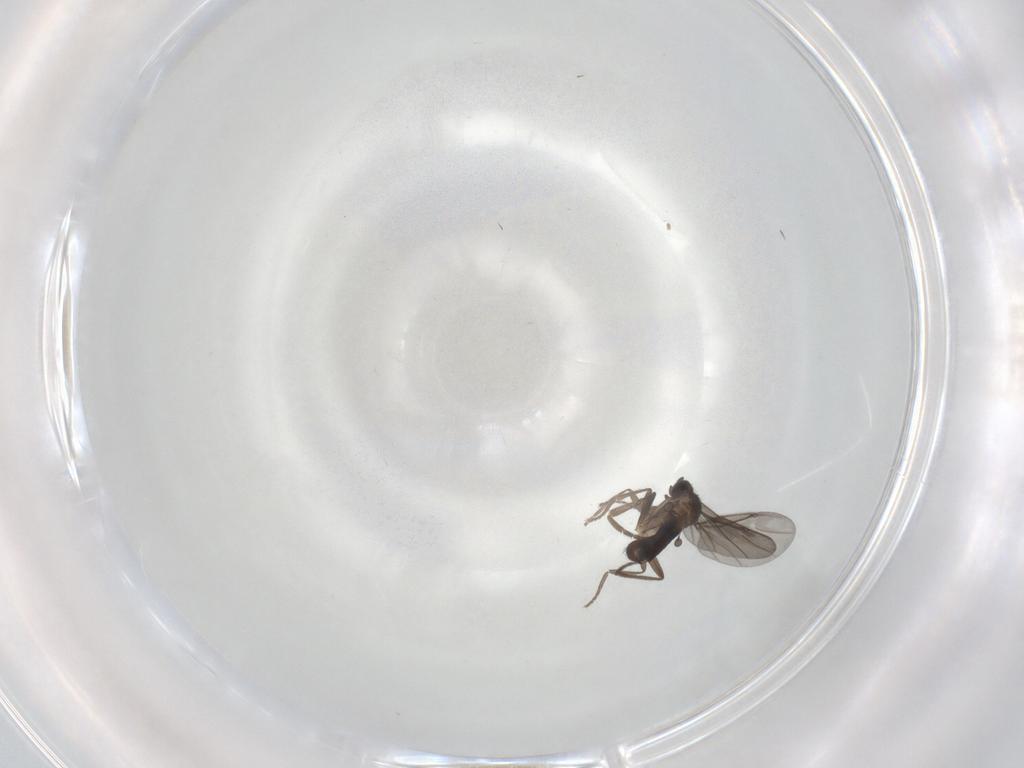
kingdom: Animalia
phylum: Arthropoda
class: Insecta
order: Diptera
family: Phoridae
